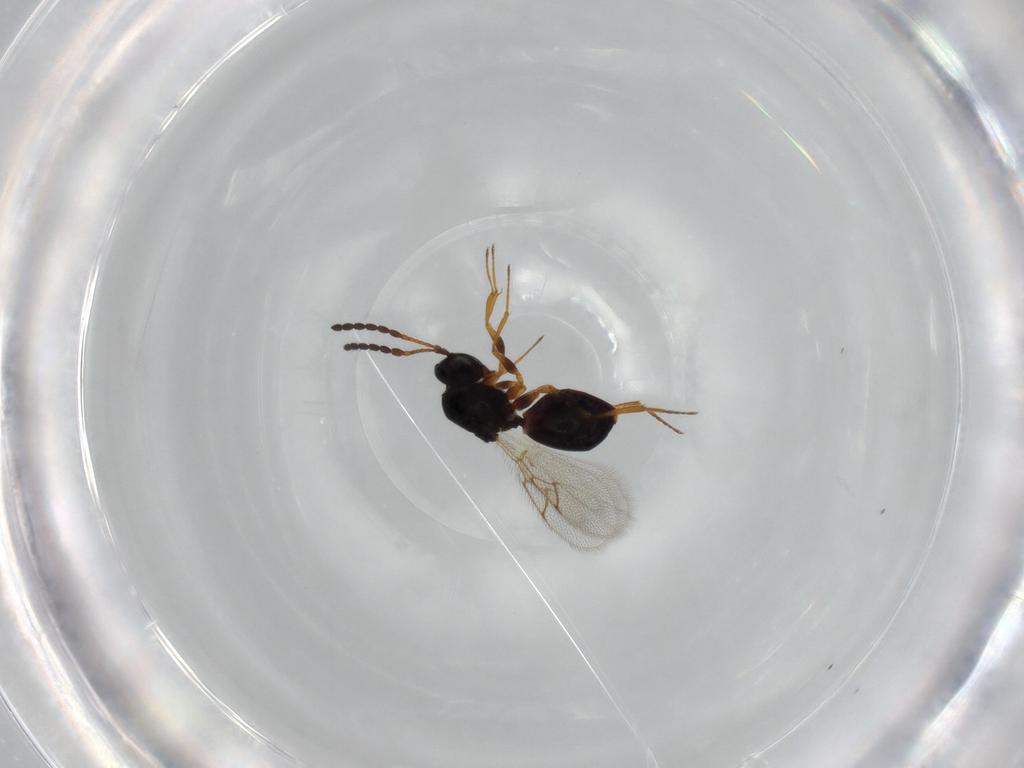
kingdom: Animalia
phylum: Arthropoda
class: Insecta
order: Hymenoptera
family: Figitidae
